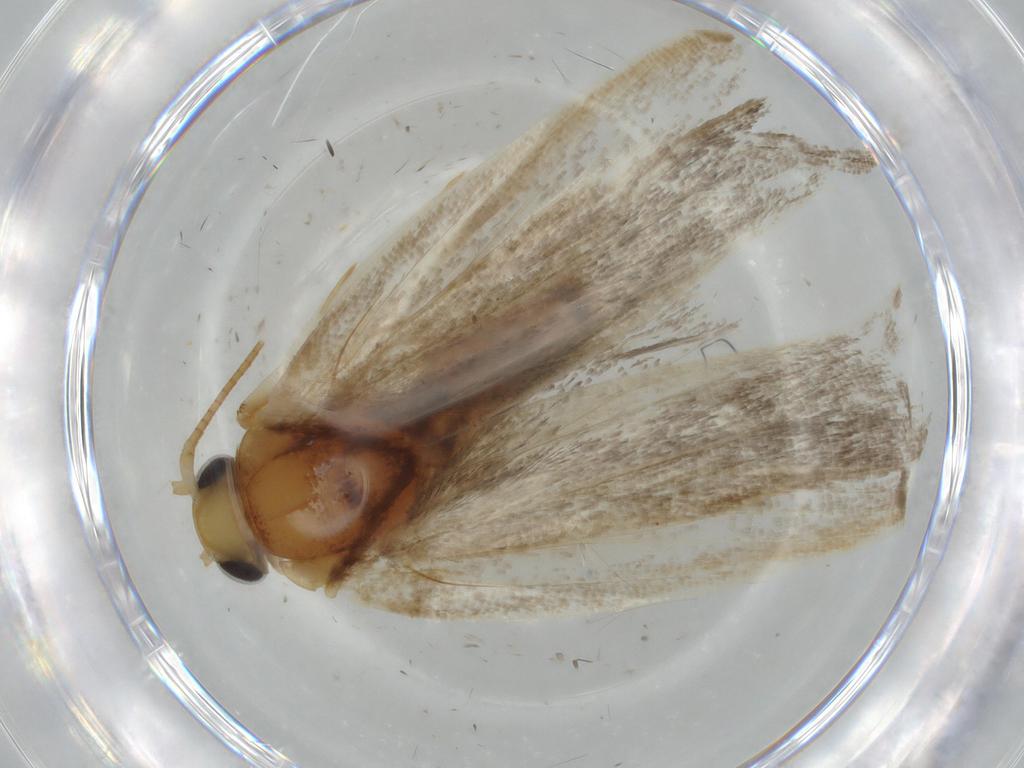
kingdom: Animalia
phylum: Arthropoda
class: Insecta
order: Lepidoptera
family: Depressariidae
